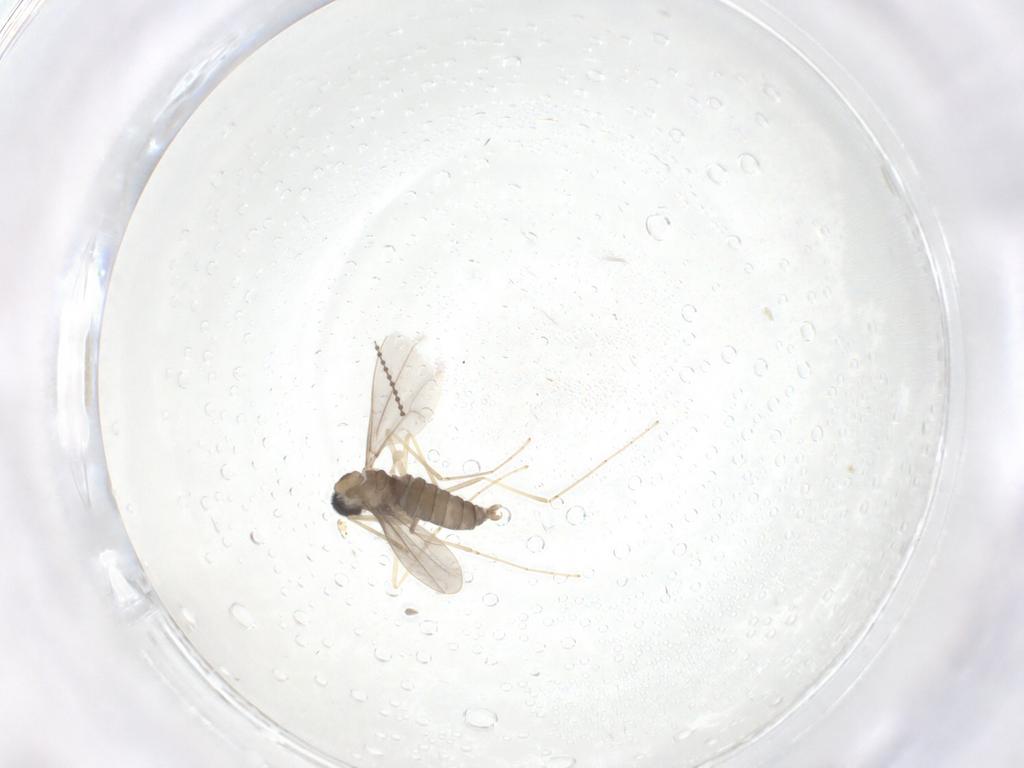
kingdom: Animalia
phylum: Arthropoda
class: Insecta
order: Diptera
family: Cecidomyiidae
